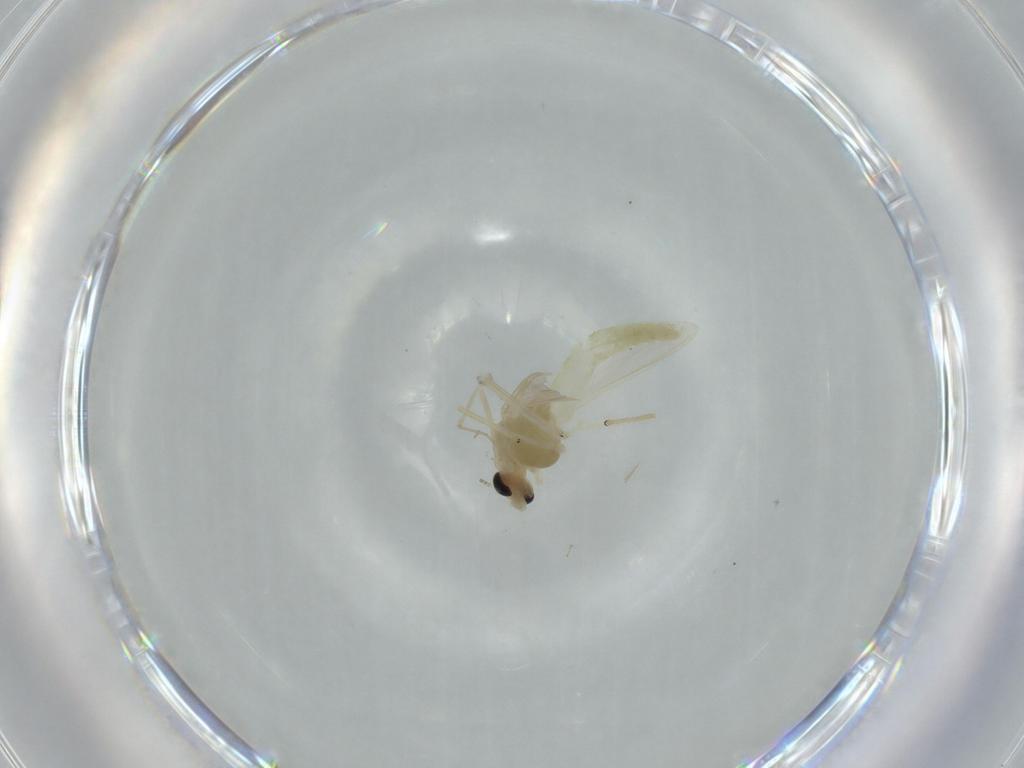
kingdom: Animalia
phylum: Arthropoda
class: Insecta
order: Diptera
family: Chironomidae
